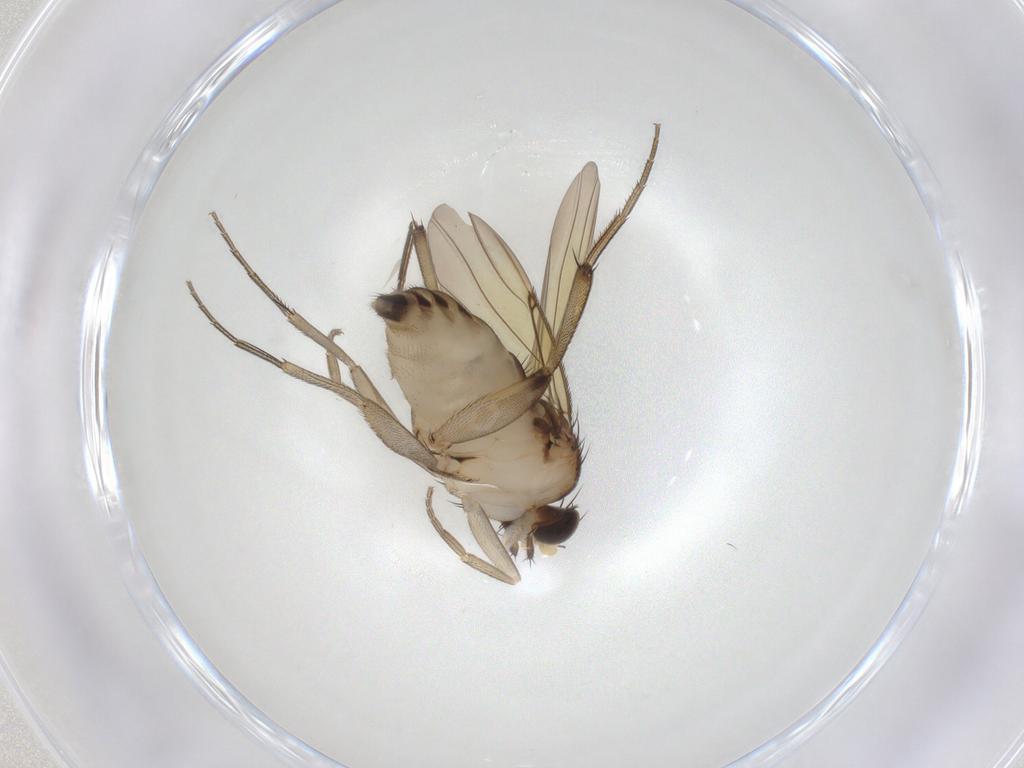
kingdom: Animalia
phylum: Arthropoda
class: Insecta
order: Diptera
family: Phoridae
